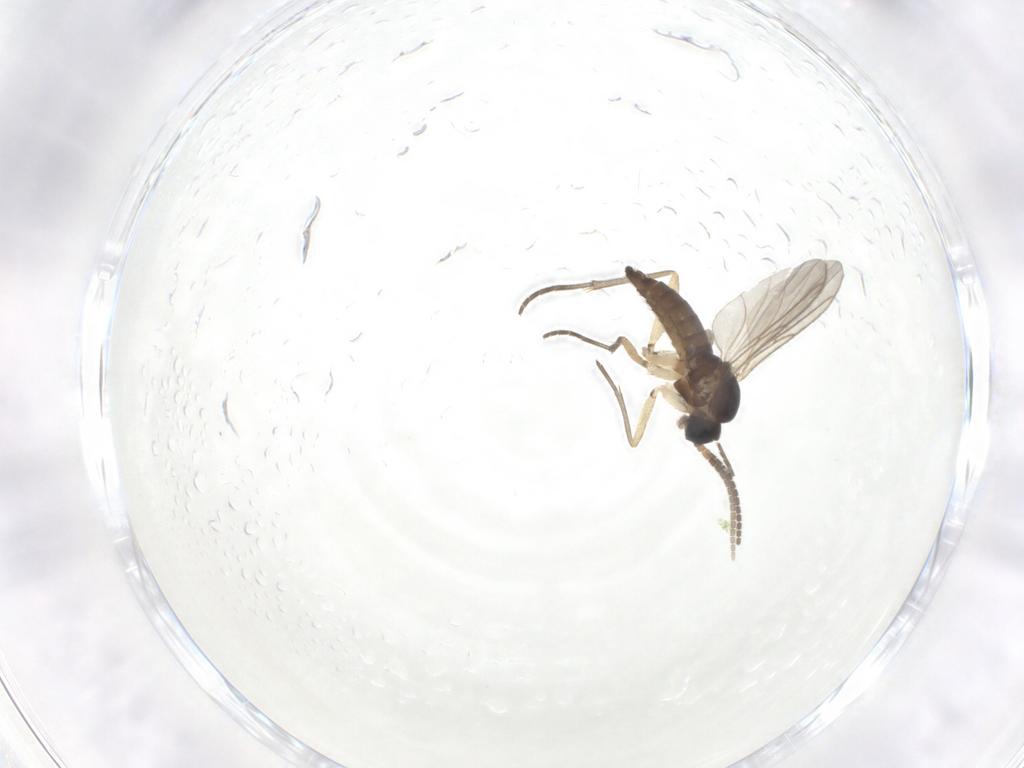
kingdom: Animalia
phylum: Arthropoda
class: Insecta
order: Diptera
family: Sciaridae
